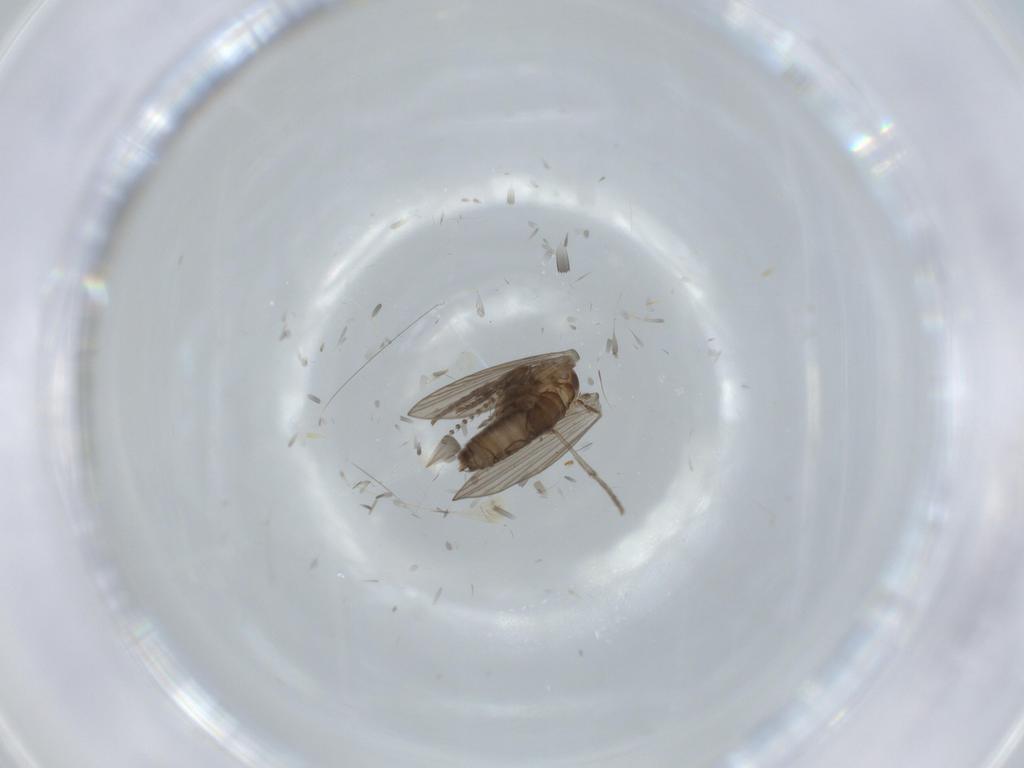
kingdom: Animalia
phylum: Arthropoda
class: Insecta
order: Diptera
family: Psychodidae
